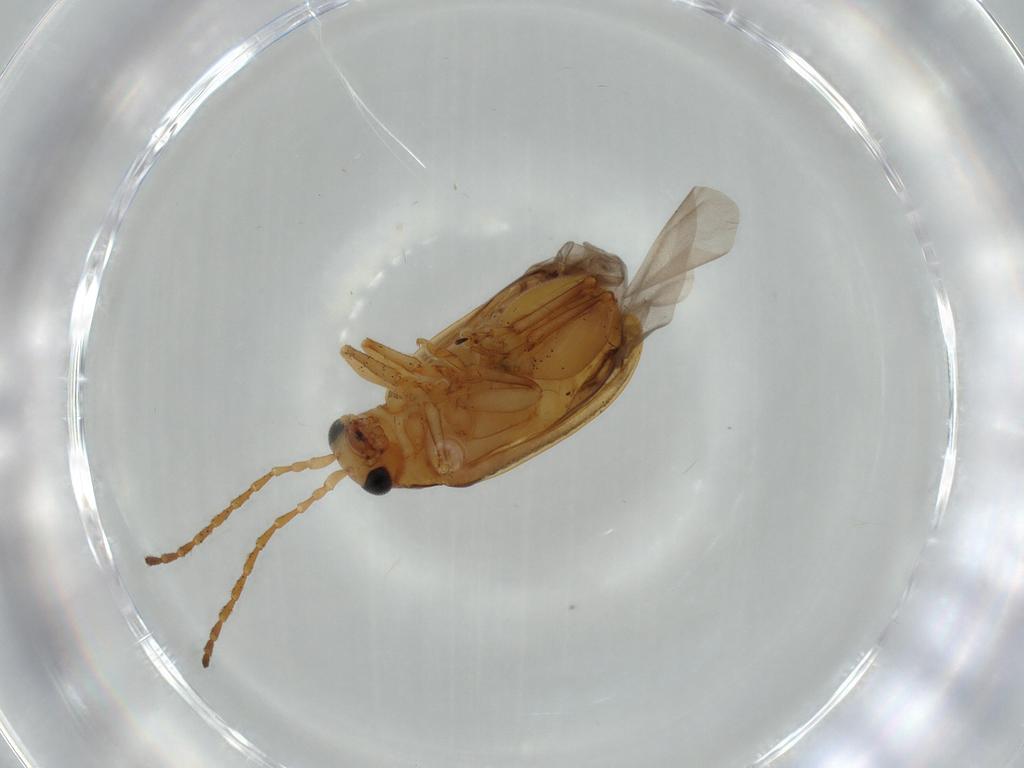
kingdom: Animalia
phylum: Arthropoda
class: Insecta
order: Coleoptera
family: Chrysomelidae
